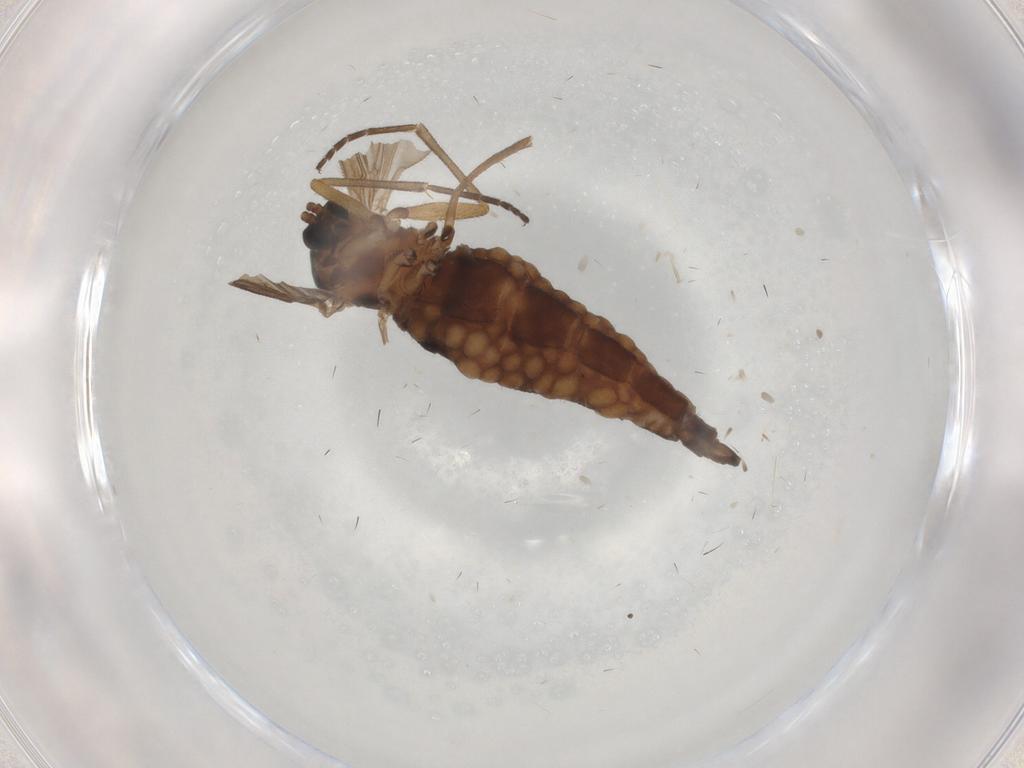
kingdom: Animalia
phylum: Arthropoda
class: Insecta
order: Diptera
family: Sciaridae
